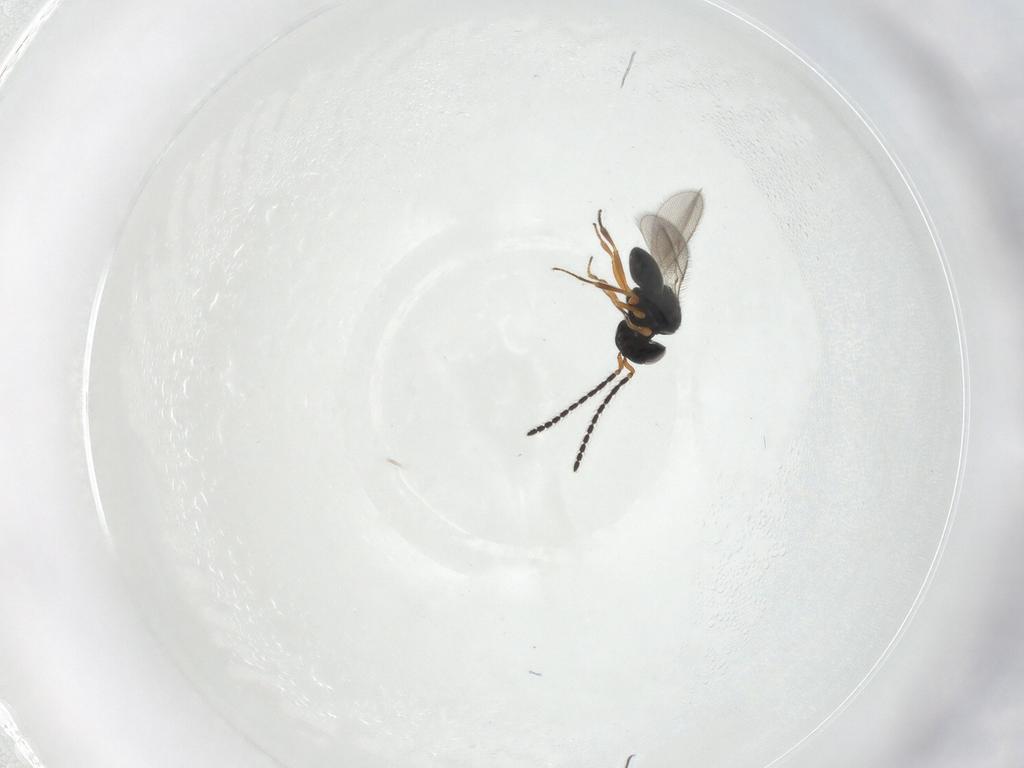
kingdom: Animalia
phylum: Arthropoda
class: Insecta
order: Hymenoptera
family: Scelionidae
